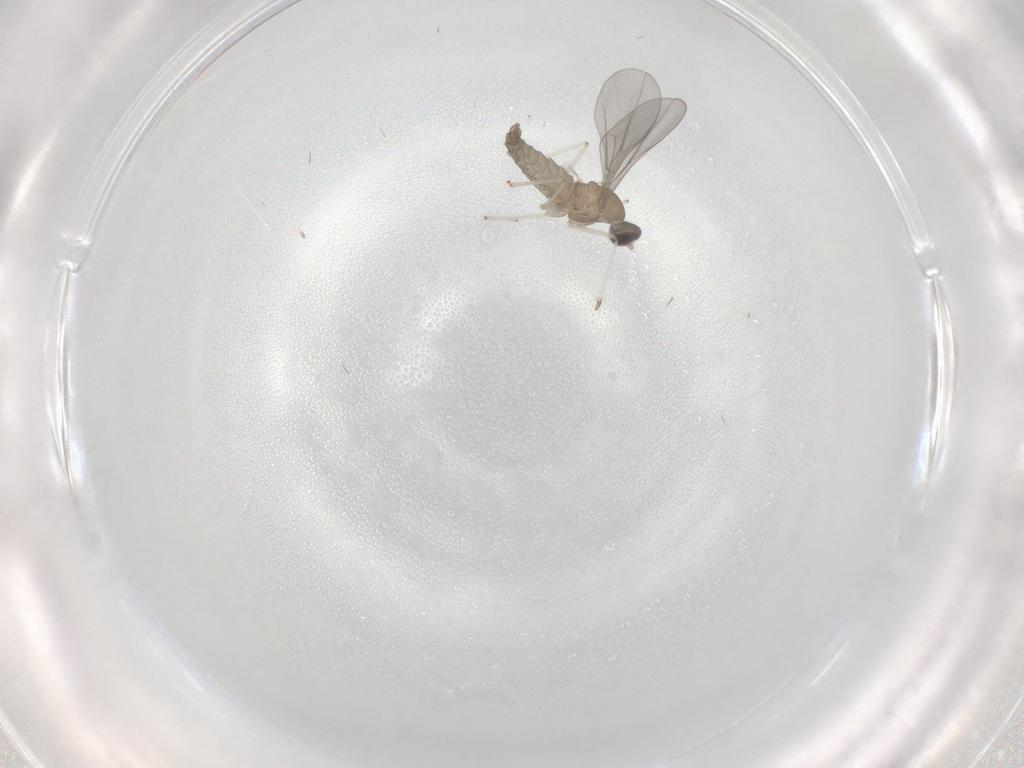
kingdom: Animalia
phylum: Arthropoda
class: Insecta
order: Diptera
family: Cecidomyiidae
